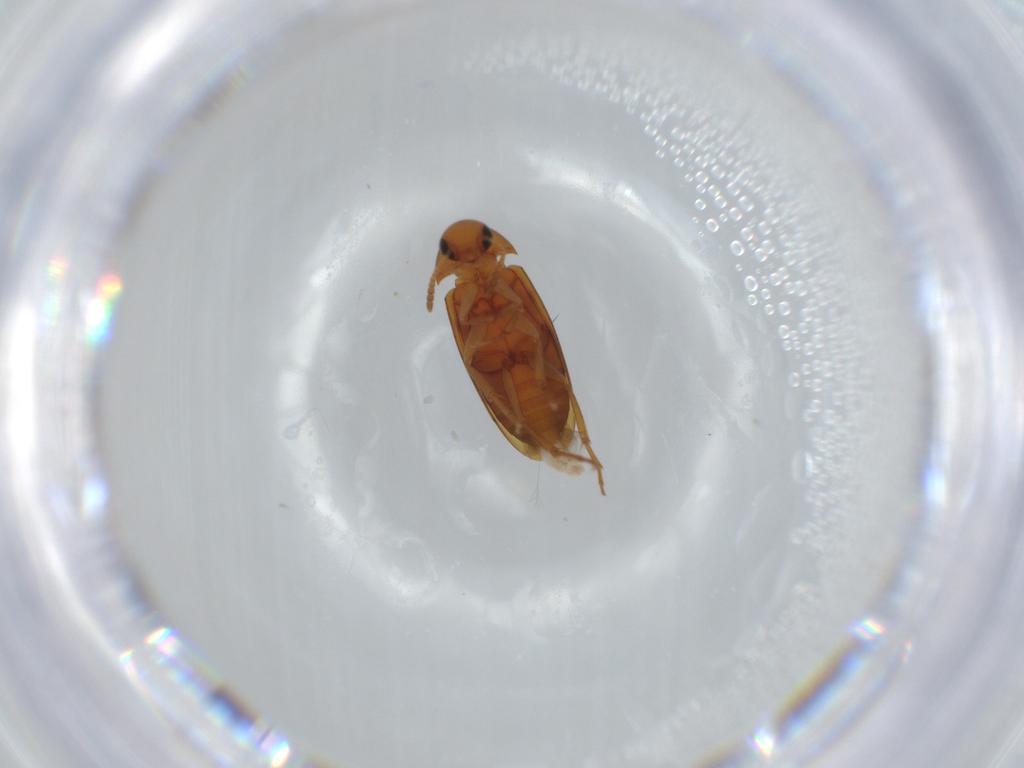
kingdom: Animalia
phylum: Arthropoda
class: Insecta
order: Coleoptera
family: Scraptiidae
